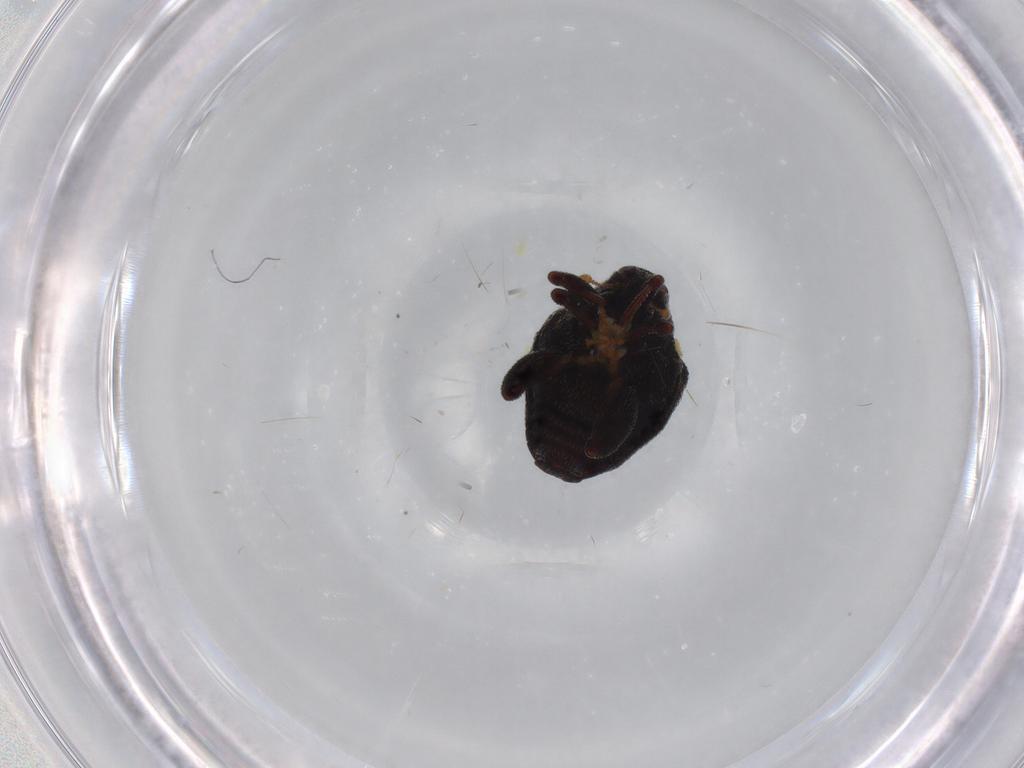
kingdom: Animalia
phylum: Arthropoda
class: Insecta
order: Coleoptera
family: Curculionidae
